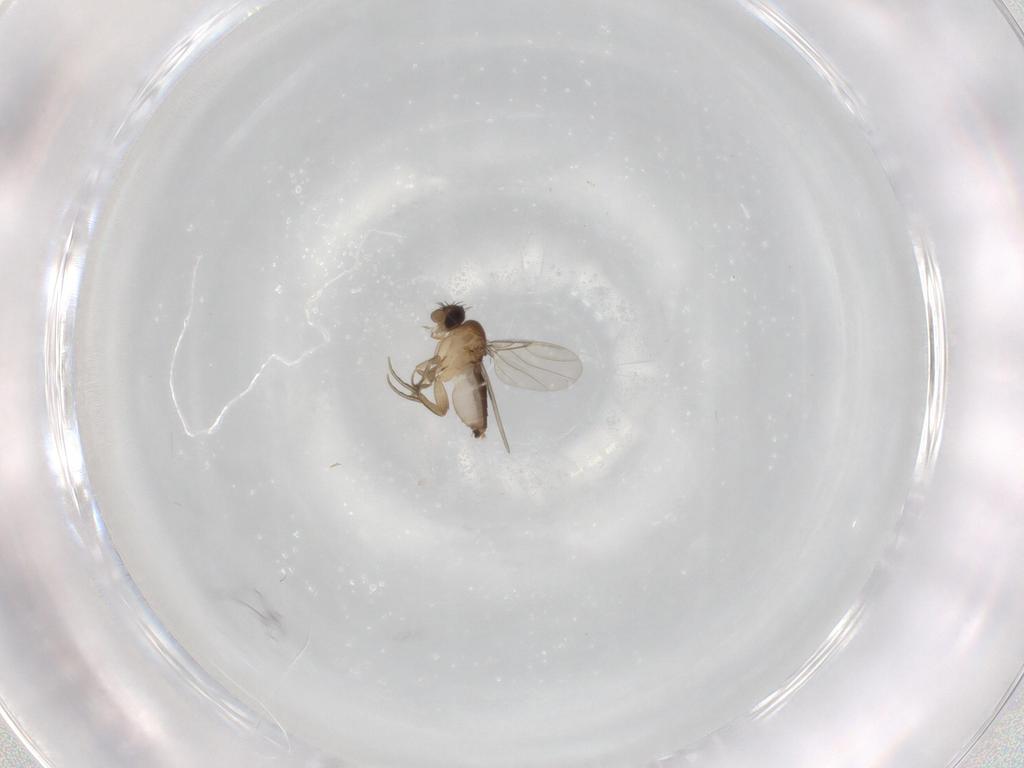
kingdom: Animalia
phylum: Arthropoda
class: Insecta
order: Diptera
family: Phoridae
